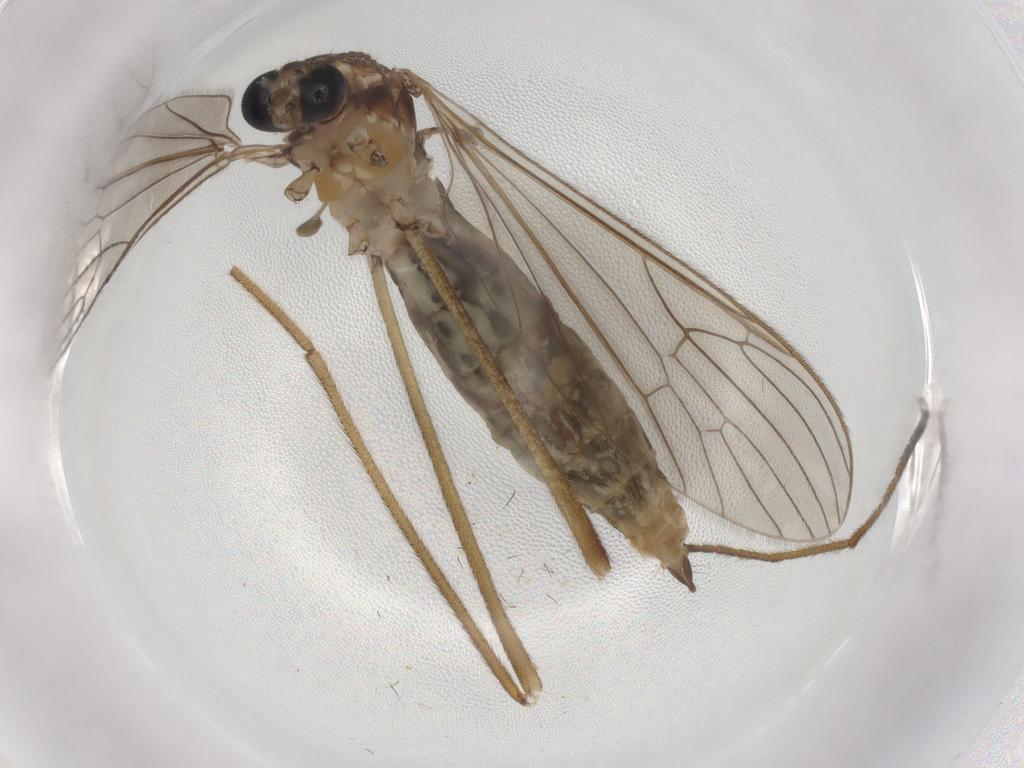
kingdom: Animalia
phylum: Arthropoda
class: Insecta
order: Diptera
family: Limoniidae
